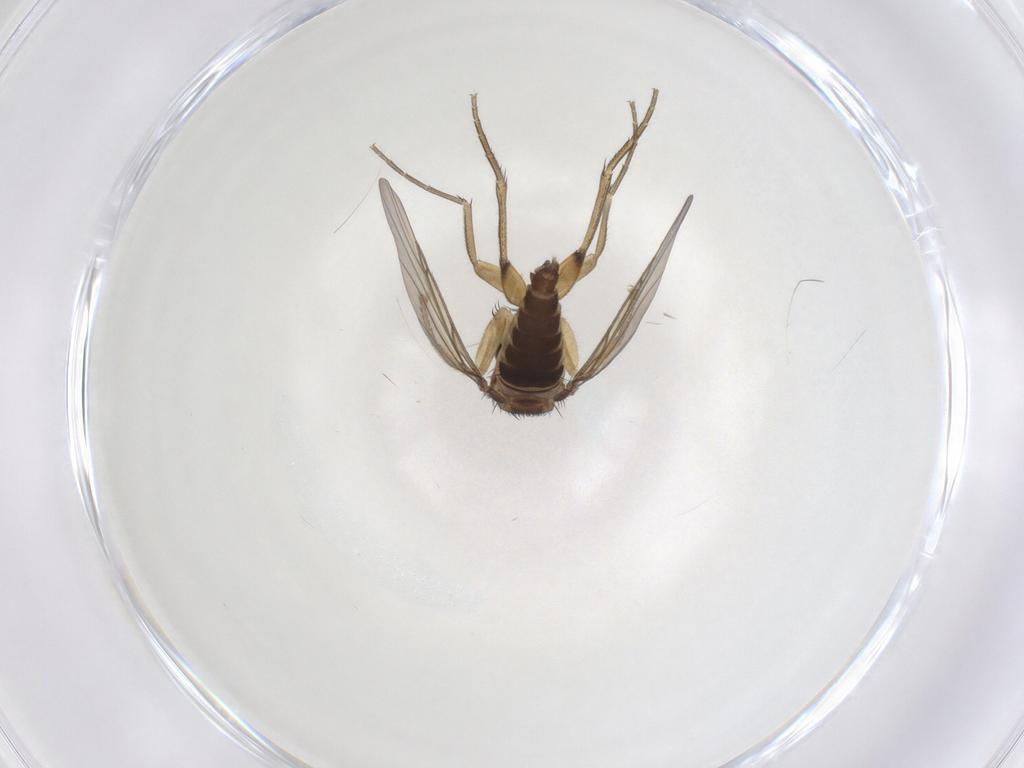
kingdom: Animalia
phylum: Arthropoda
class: Insecta
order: Diptera
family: Phoridae
